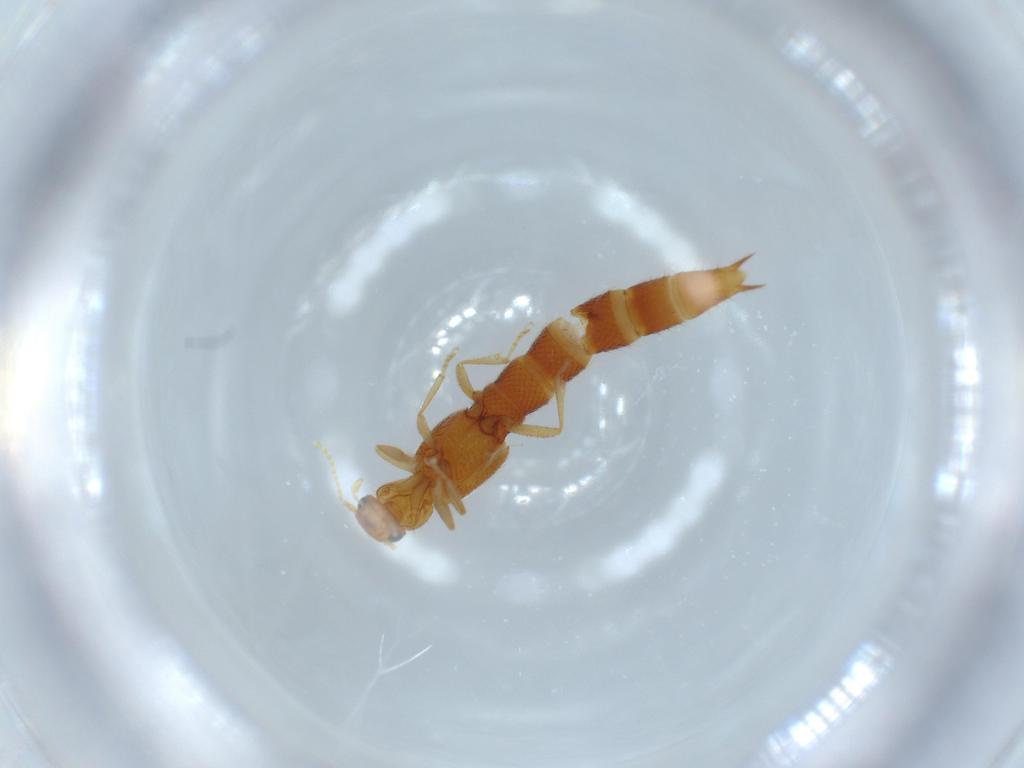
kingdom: Animalia
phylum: Arthropoda
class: Insecta
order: Coleoptera
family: Staphylinidae
